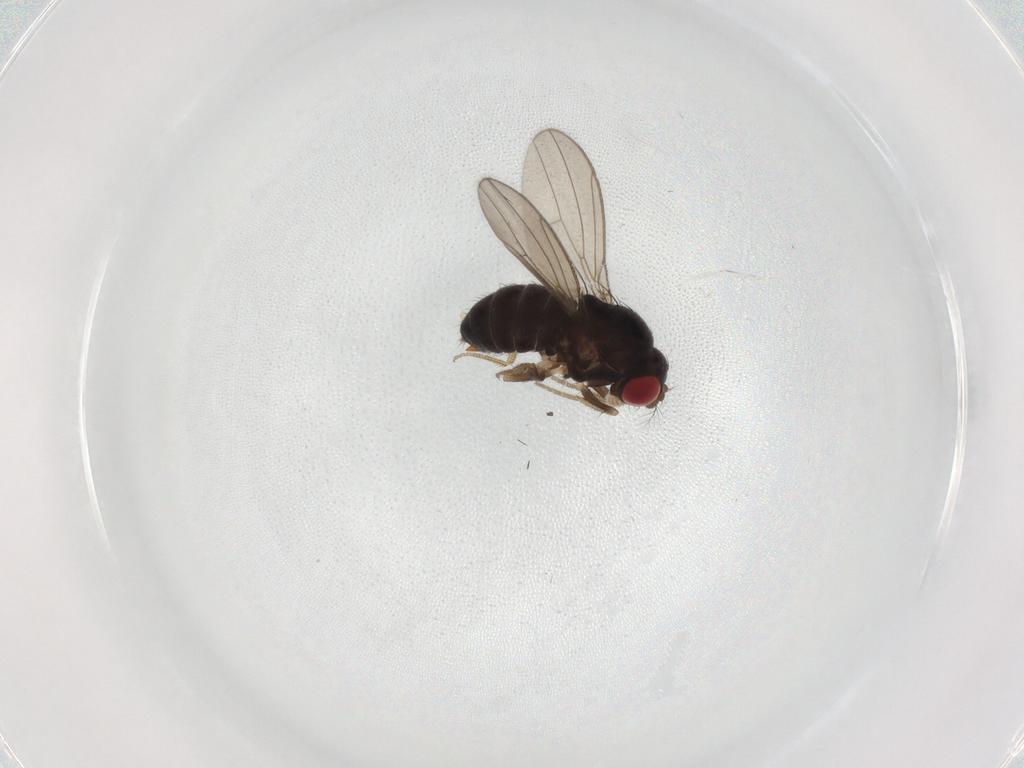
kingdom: Animalia
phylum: Arthropoda
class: Insecta
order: Diptera
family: Drosophilidae
